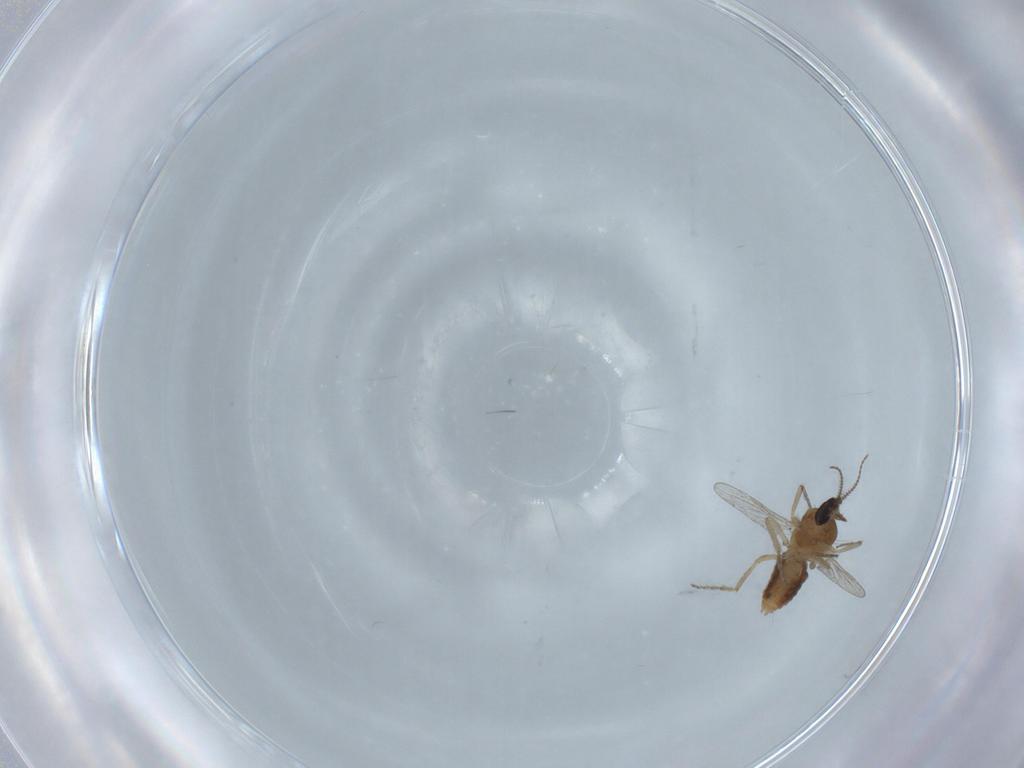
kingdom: Animalia
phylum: Arthropoda
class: Insecta
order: Diptera
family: Ceratopogonidae
